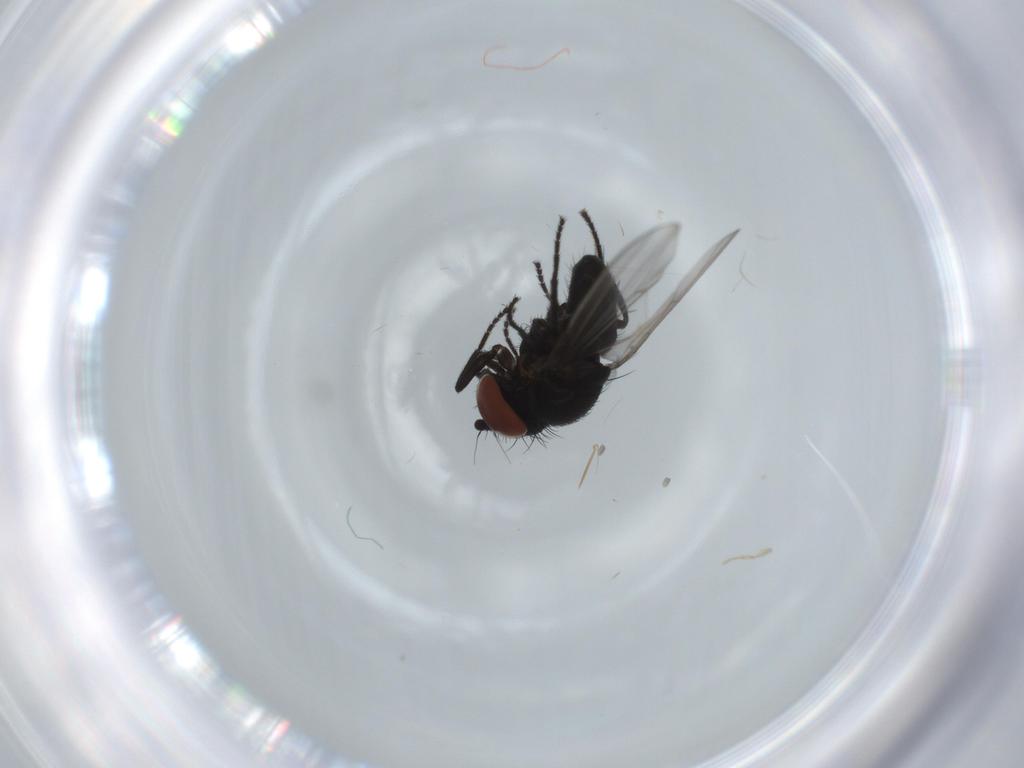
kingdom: Animalia
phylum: Arthropoda
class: Insecta
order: Diptera
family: Milichiidae
